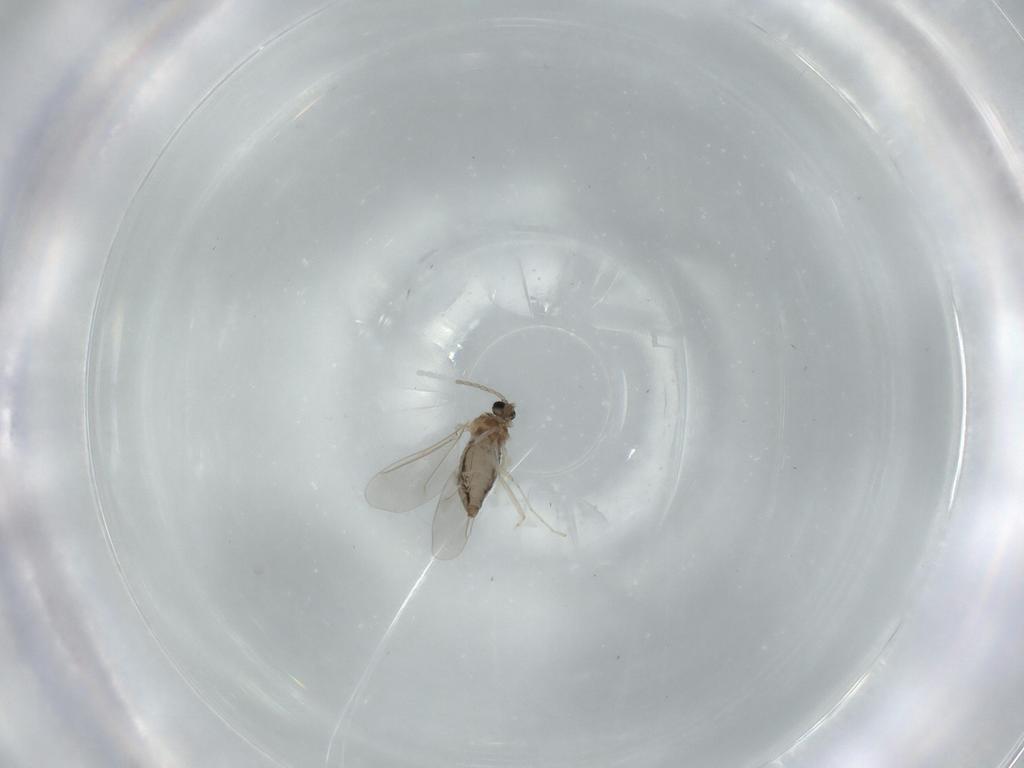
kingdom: Animalia
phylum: Arthropoda
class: Insecta
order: Diptera
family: Cecidomyiidae
